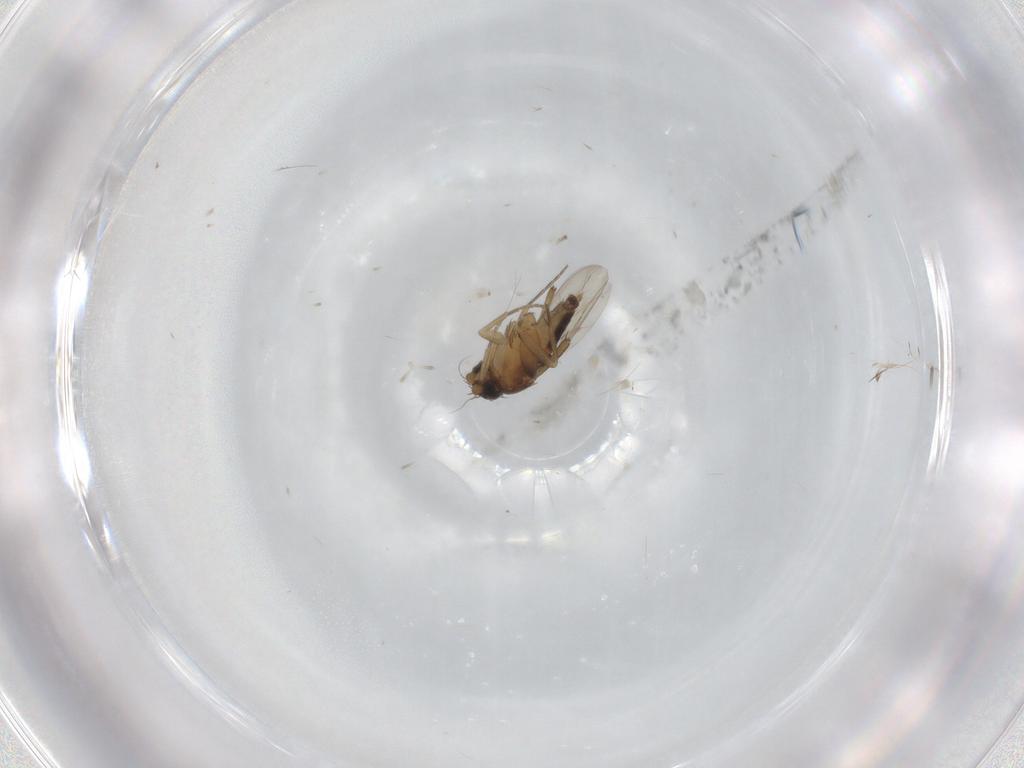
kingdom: Animalia
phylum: Arthropoda
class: Insecta
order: Diptera
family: Phoridae
